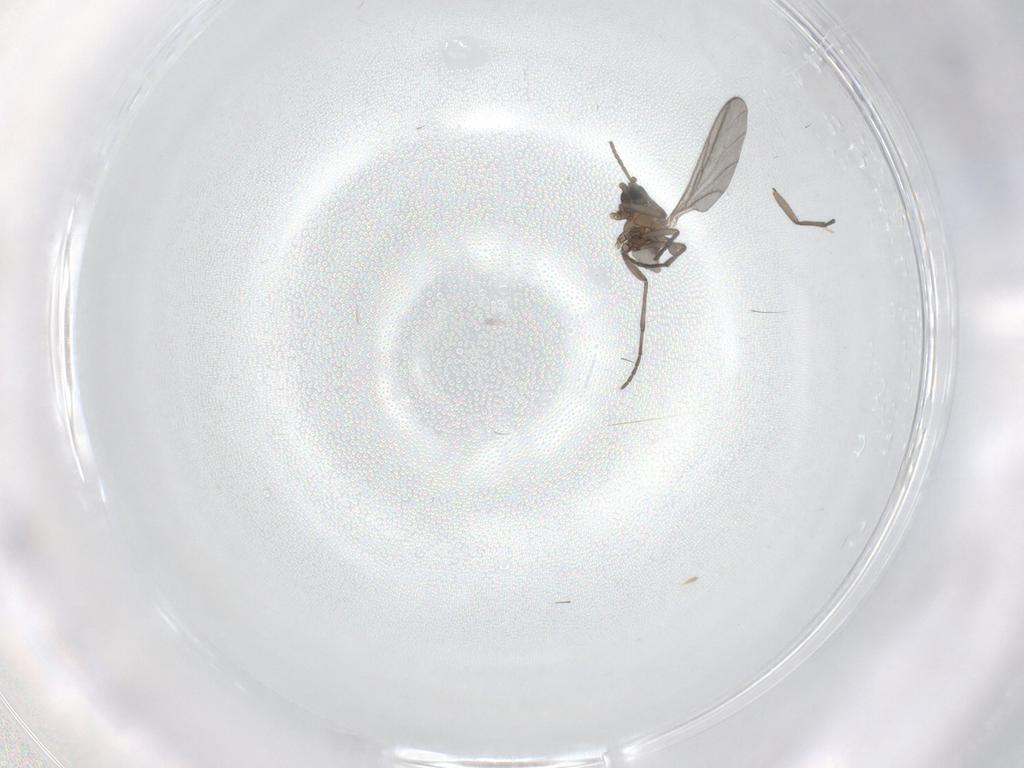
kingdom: Animalia
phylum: Arthropoda
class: Insecta
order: Diptera
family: Sciaridae
